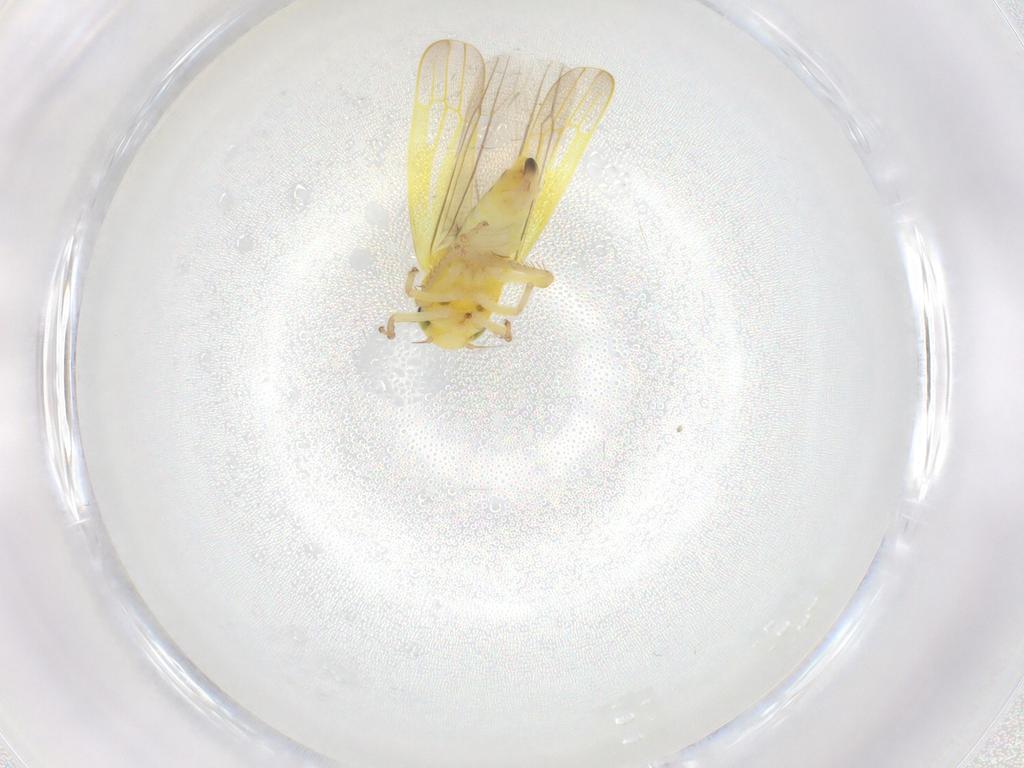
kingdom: Animalia
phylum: Arthropoda
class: Insecta
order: Hemiptera
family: Cicadellidae
